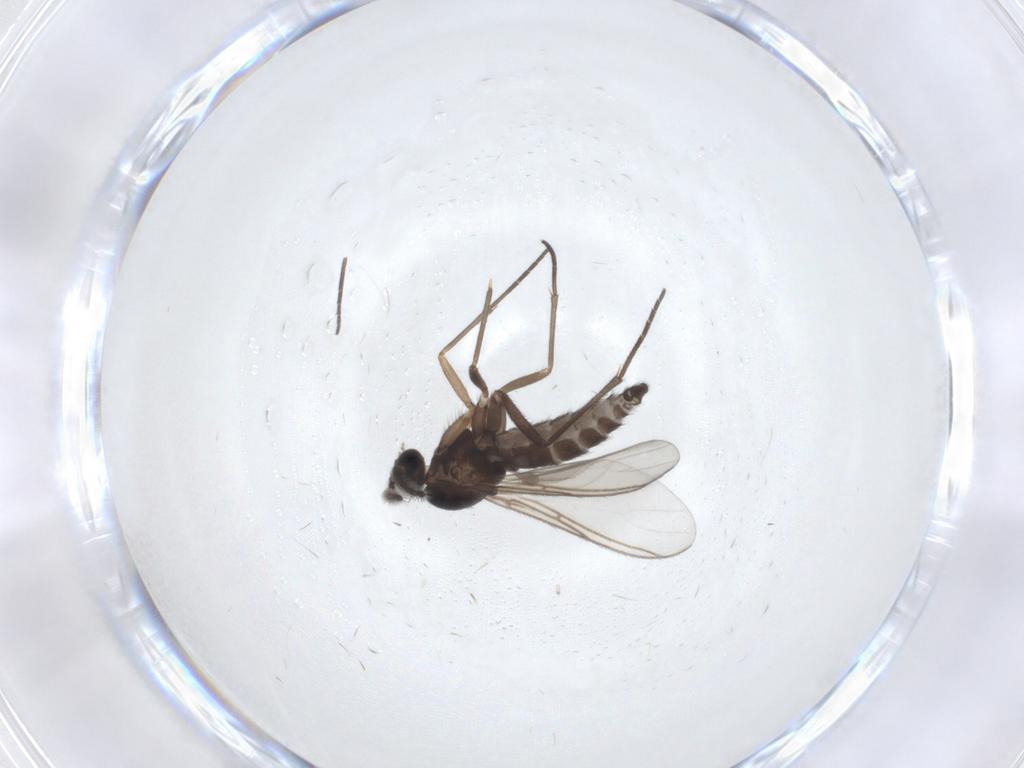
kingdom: Animalia
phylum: Arthropoda
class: Insecta
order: Diptera
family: Sciaridae
